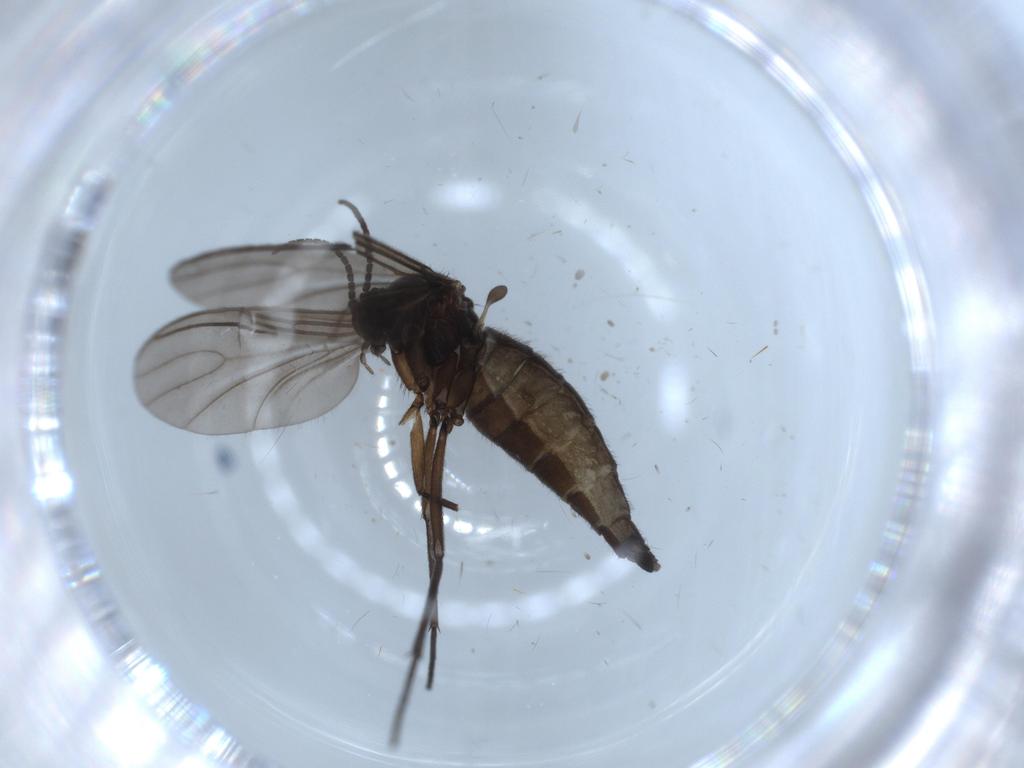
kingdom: Animalia
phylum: Arthropoda
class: Insecta
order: Diptera
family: Sciaridae
